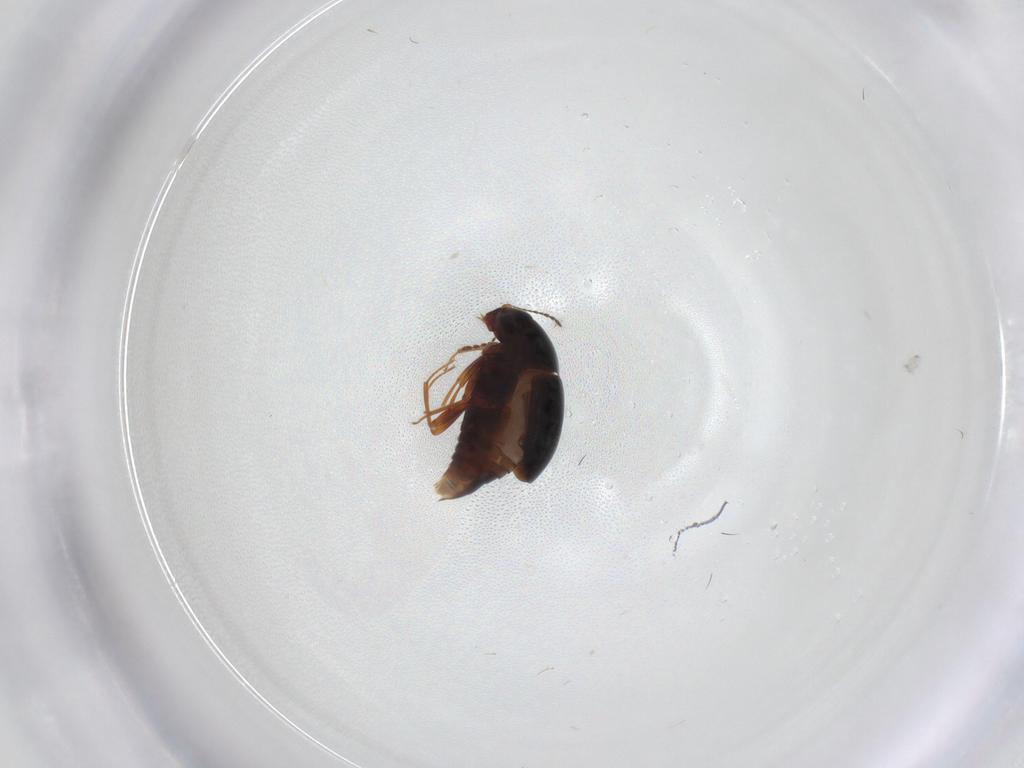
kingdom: Animalia
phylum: Arthropoda
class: Insecta
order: Coleoptera
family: Staphylinidae
